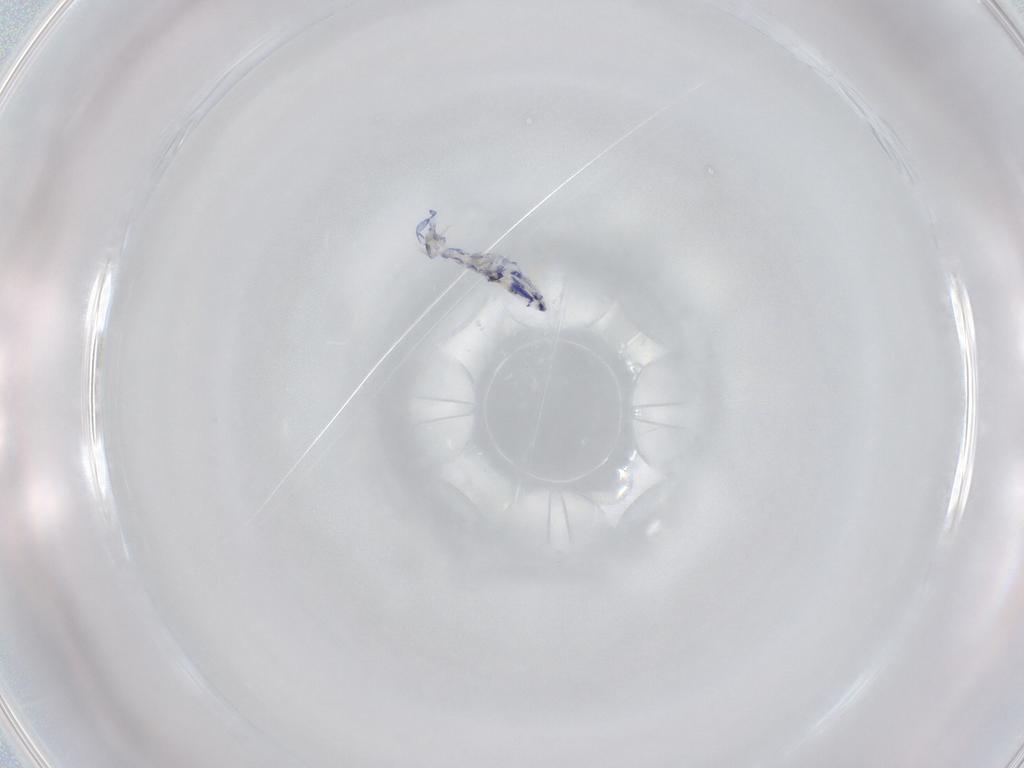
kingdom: Animalia
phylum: Arthropoda
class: Collembola
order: Entomobryomorpha
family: Entomobryidae
